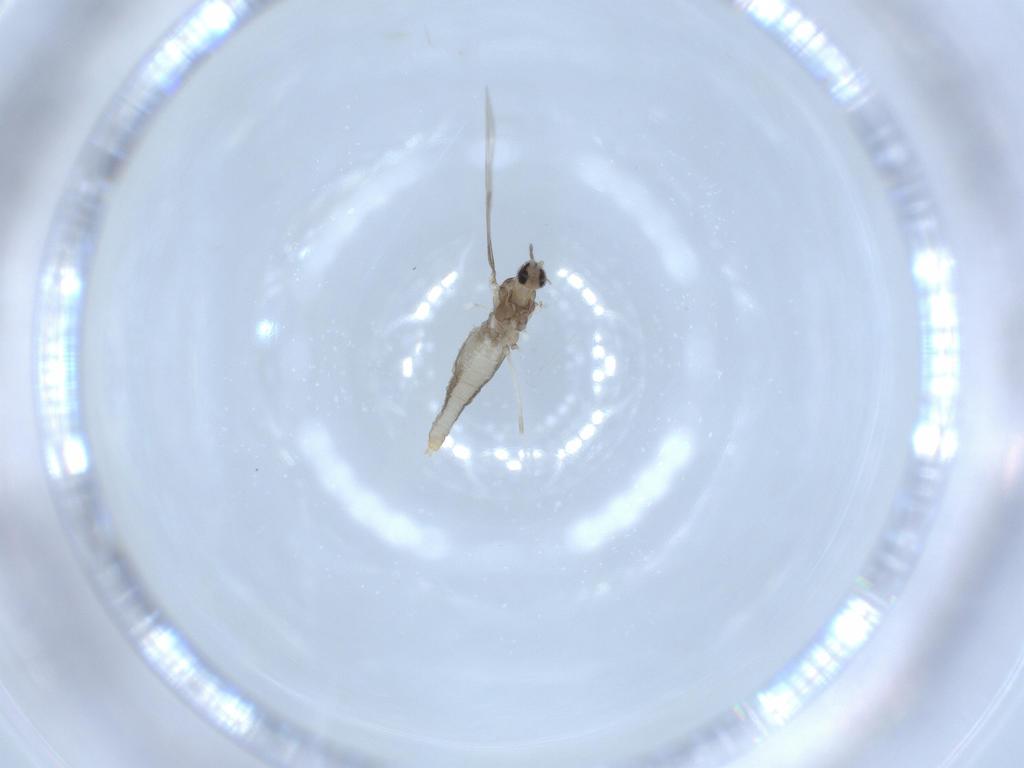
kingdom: Animalia
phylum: Arthropoda
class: Insecta
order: Diptera
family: Cecidomyiidae
